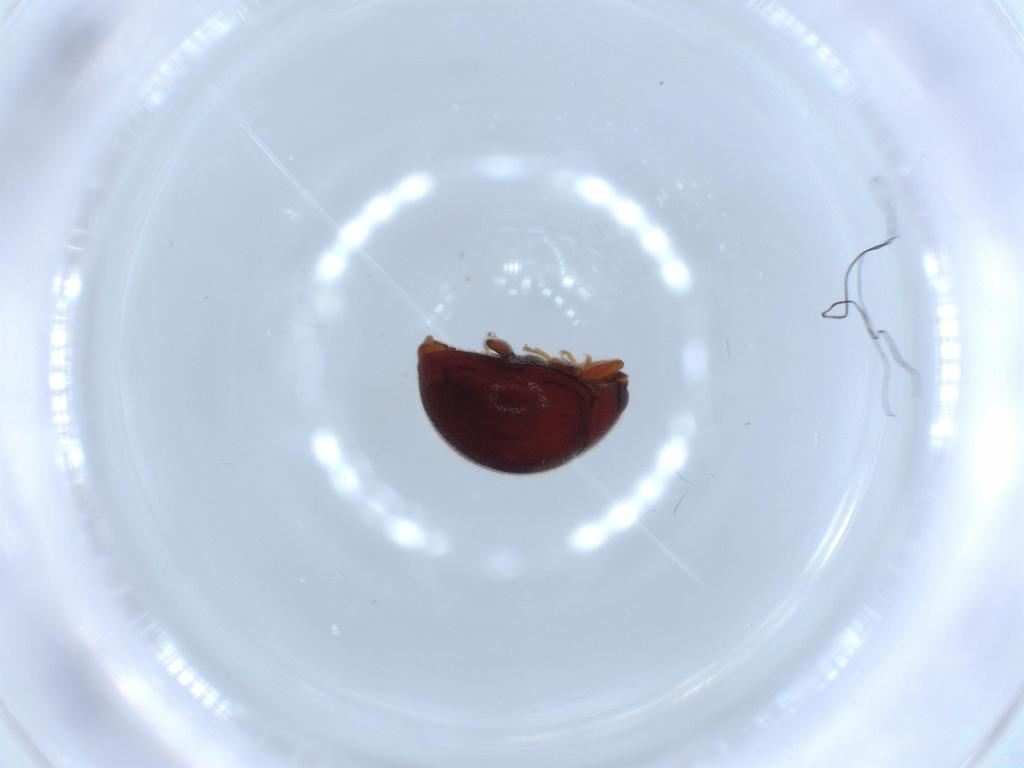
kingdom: Animalia
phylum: Arthropoda
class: Insecta
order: Coleoptera
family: Coccinellidae
